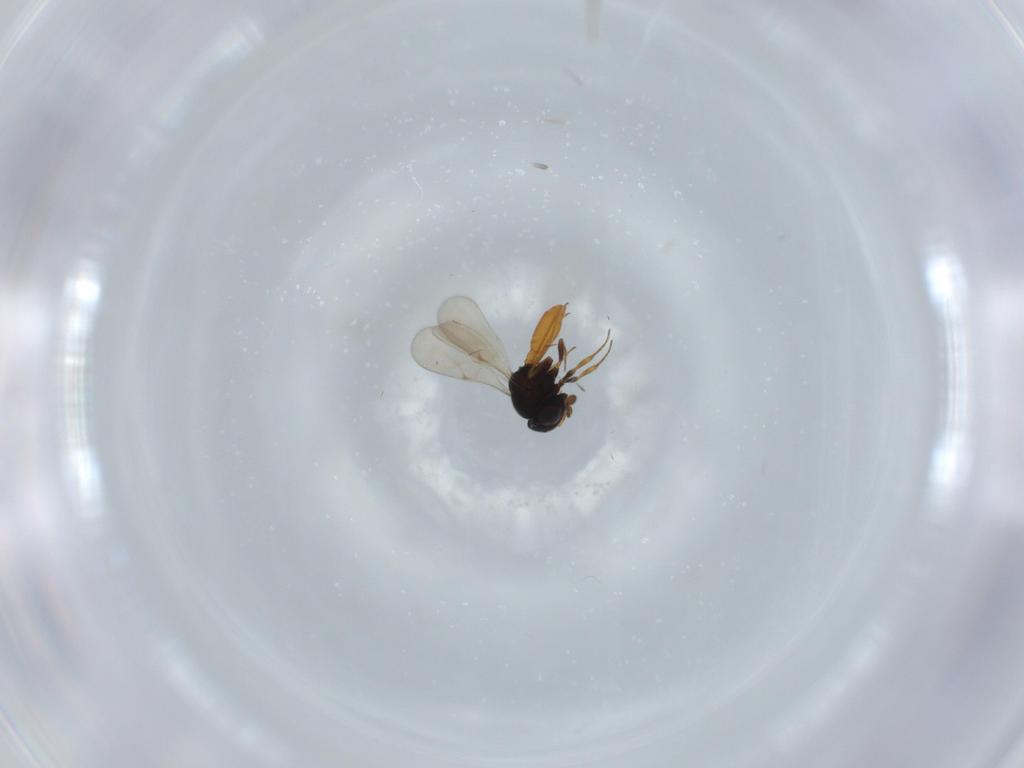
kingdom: Animalia
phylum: Arthropoda
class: Insecta
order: Hymenoptera
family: Scelionidae
